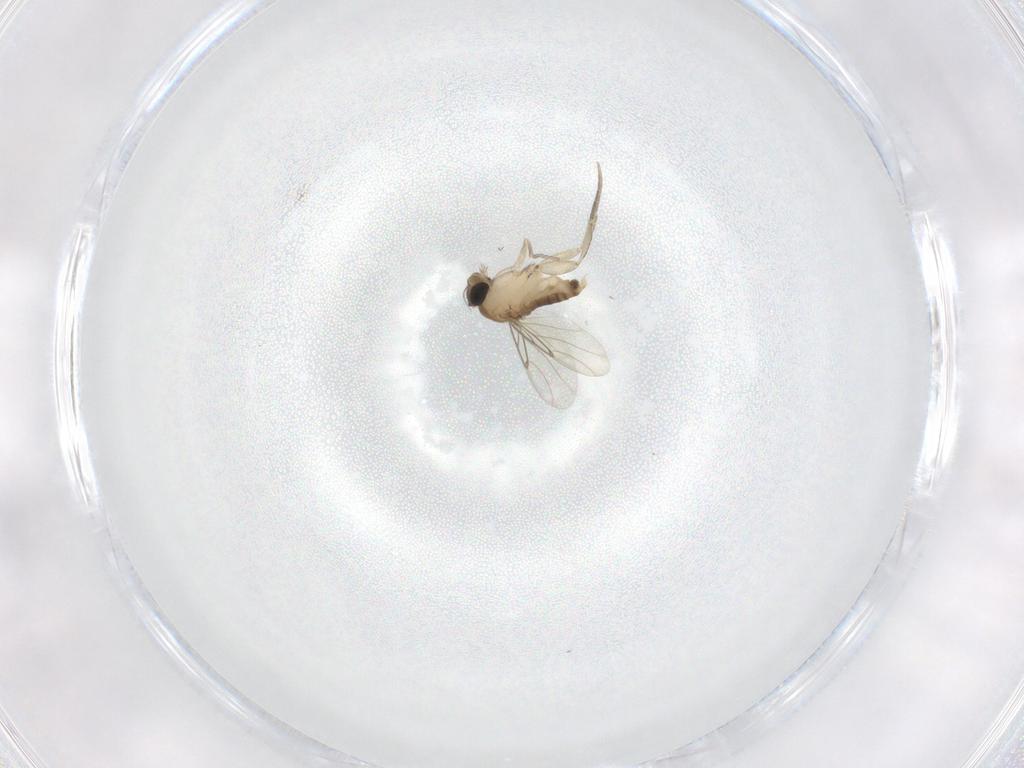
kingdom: Animalia
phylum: Arthropoda
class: Insecta
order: Diptera
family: Phoridae
